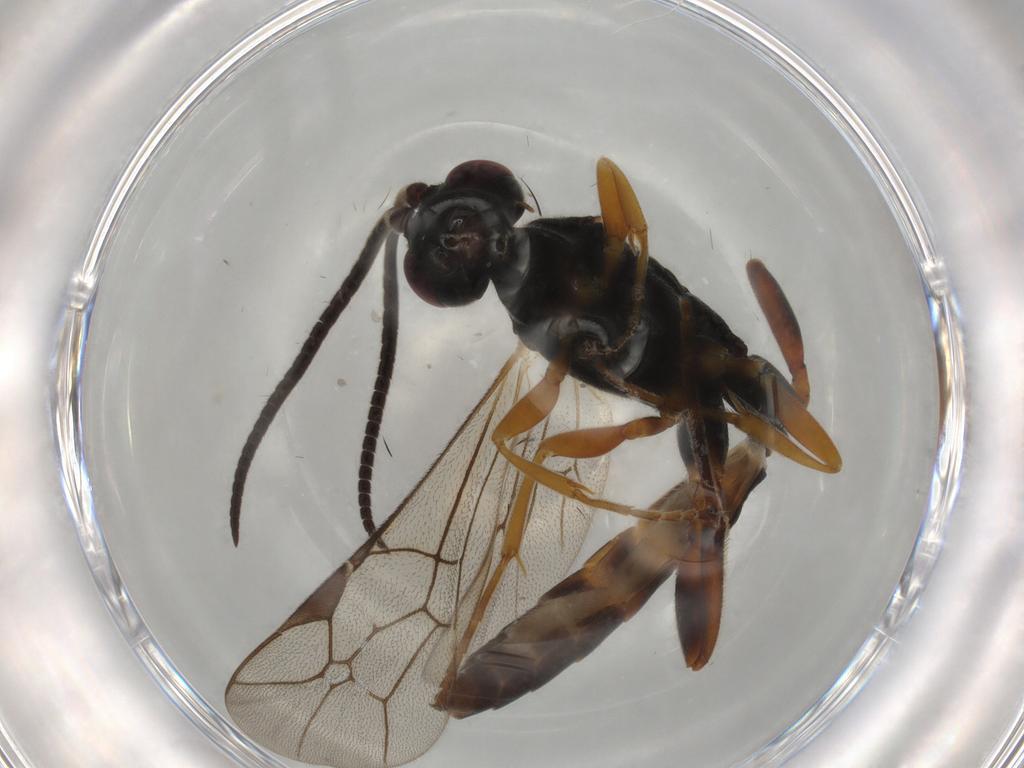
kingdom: Animalia
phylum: Arthropoda
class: Insecta
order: Hymenoptera
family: Ichneumonidae
